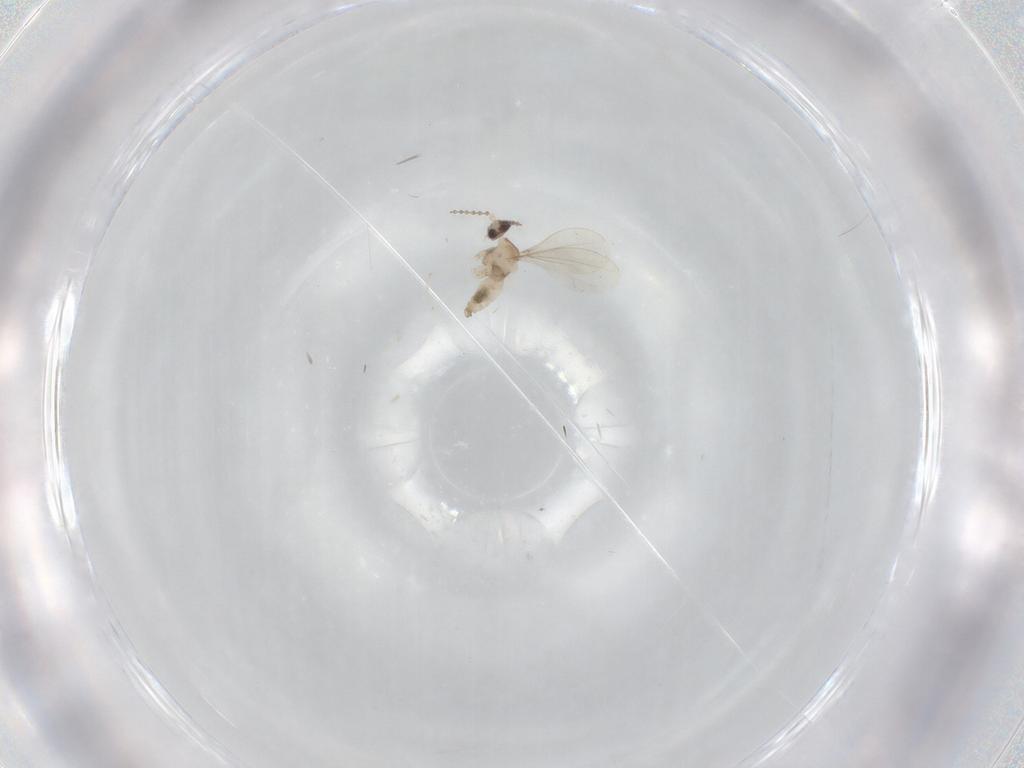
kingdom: Animalia
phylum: Arthropoda
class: Insecta
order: Diptera
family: Cecidomyiidae
